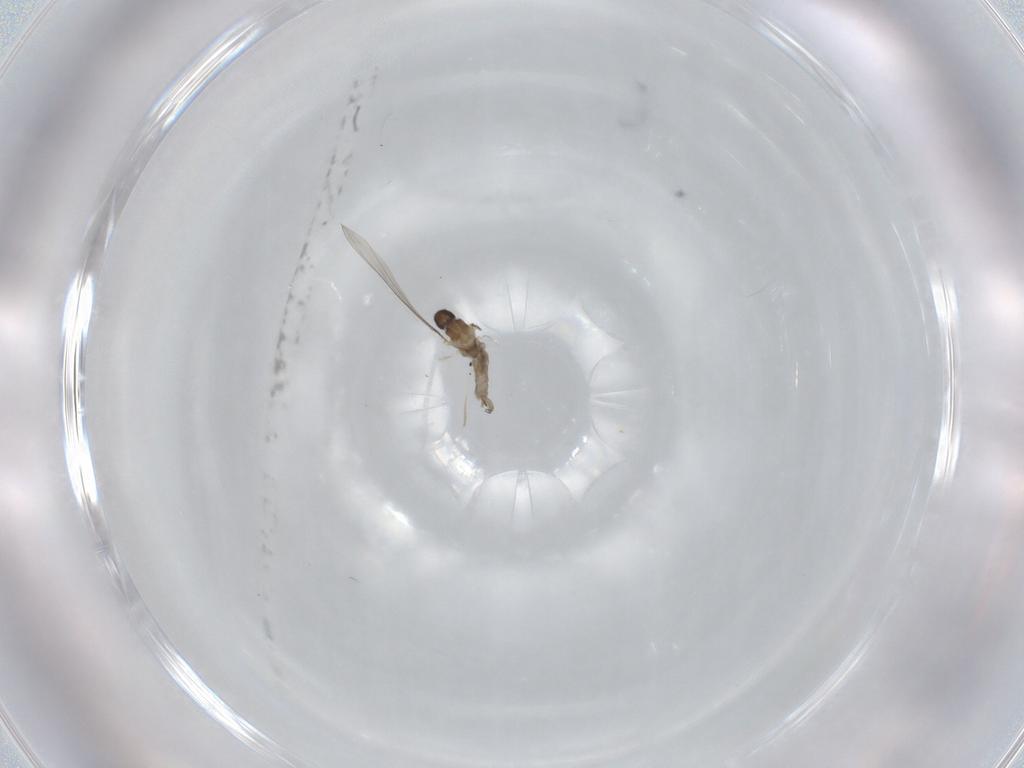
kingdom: Animalia
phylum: Arthropoda
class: Insecta
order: Diptera
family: Cecidomyiidae
